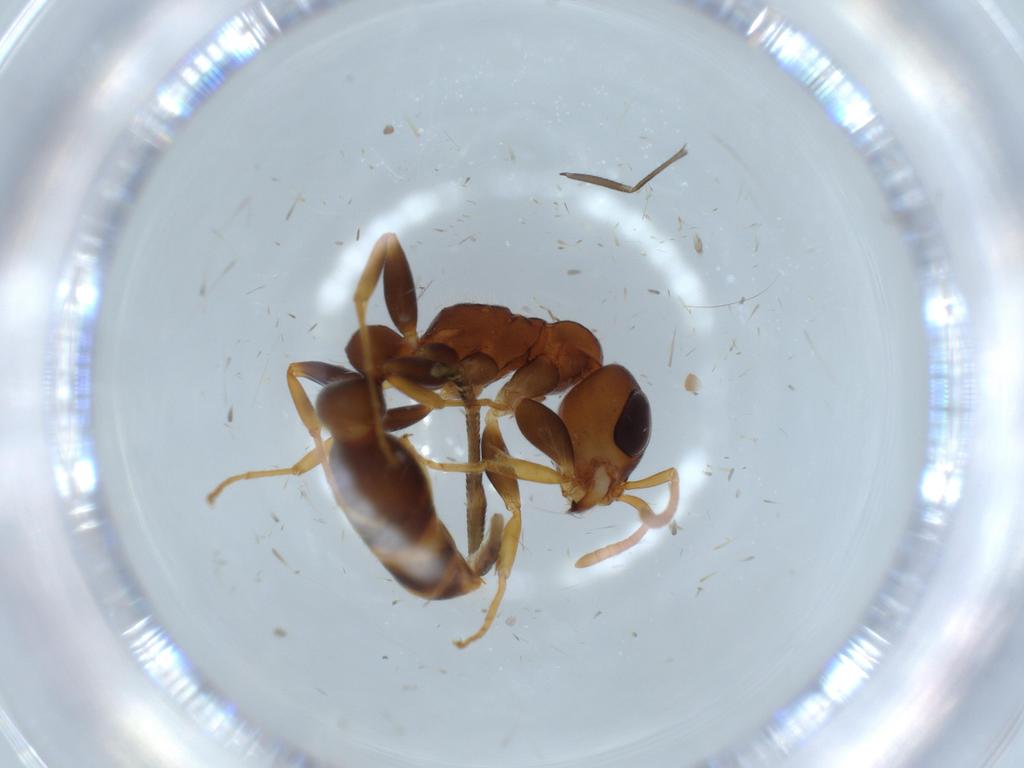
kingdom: Animalia
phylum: Arthropoda
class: Insecta
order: Hymenoptera
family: Formicidae
